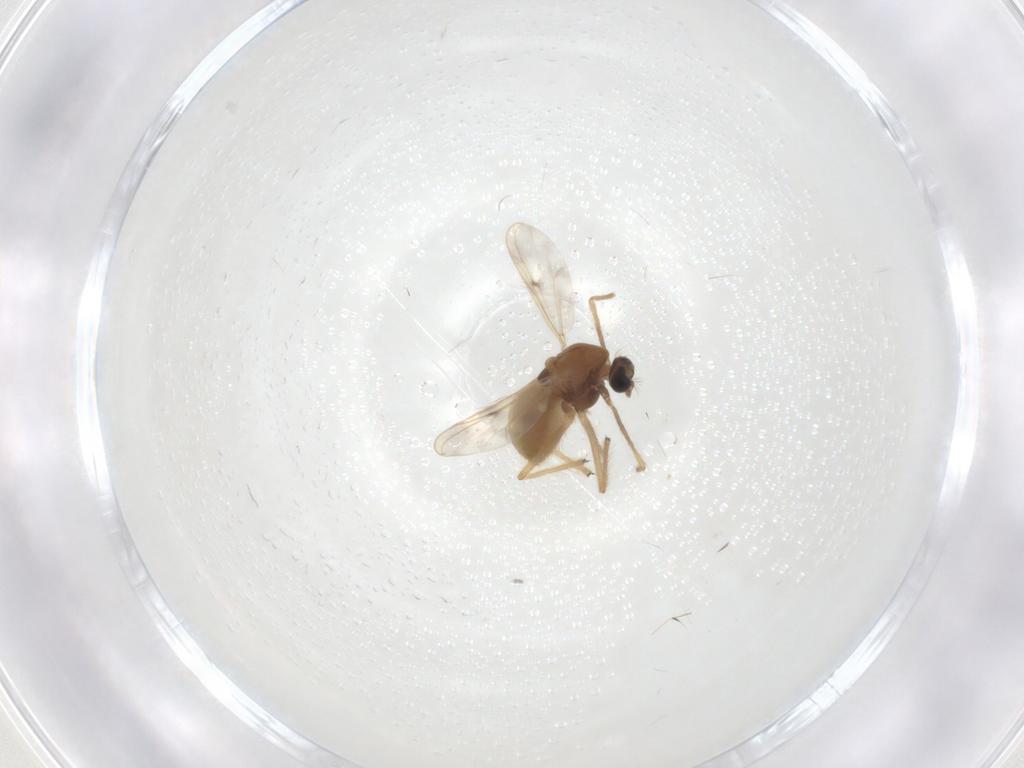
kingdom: Animalia
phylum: Arthropoda
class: Insecta
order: Diptera
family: Chironomidae
